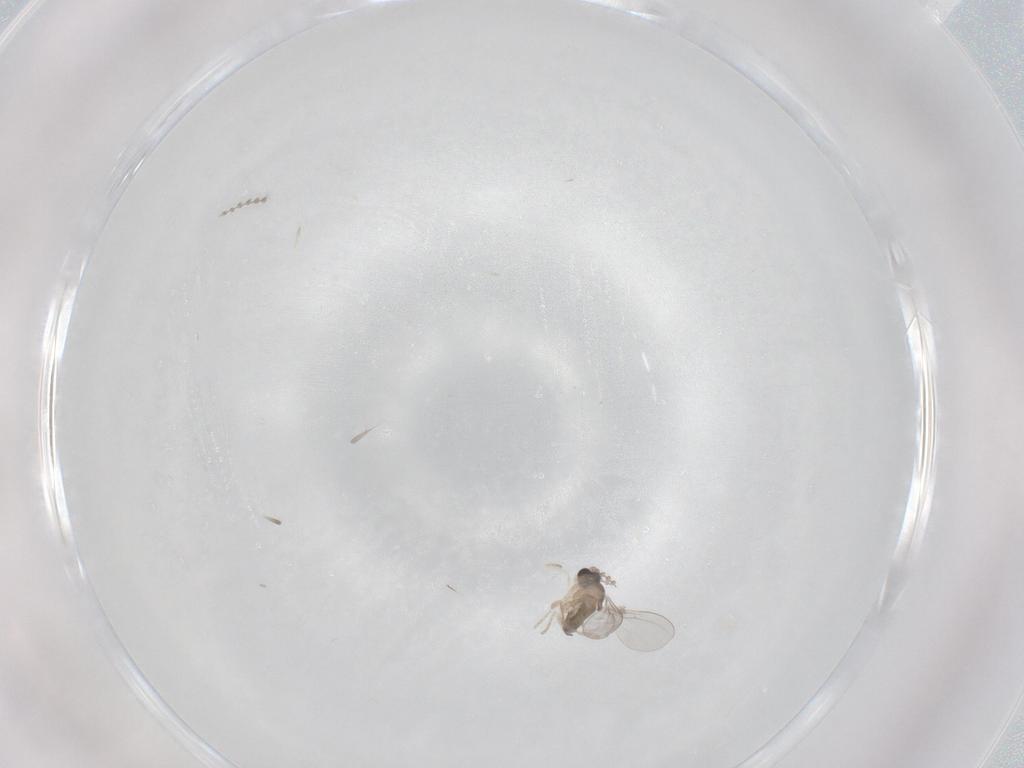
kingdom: Animalia
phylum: Arthropoda
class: Insecta
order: Diptera
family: Cecidomyiidae
